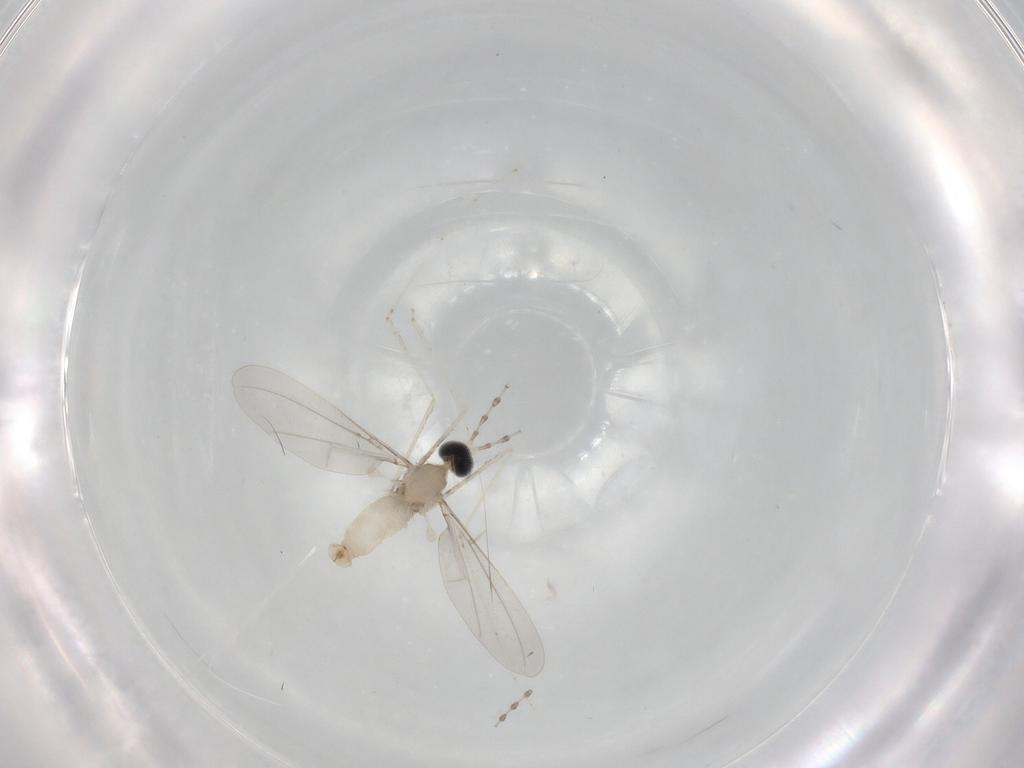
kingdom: Animalia
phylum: Arthropoda
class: Insecta
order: Diptera
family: Cecidomyiidae
